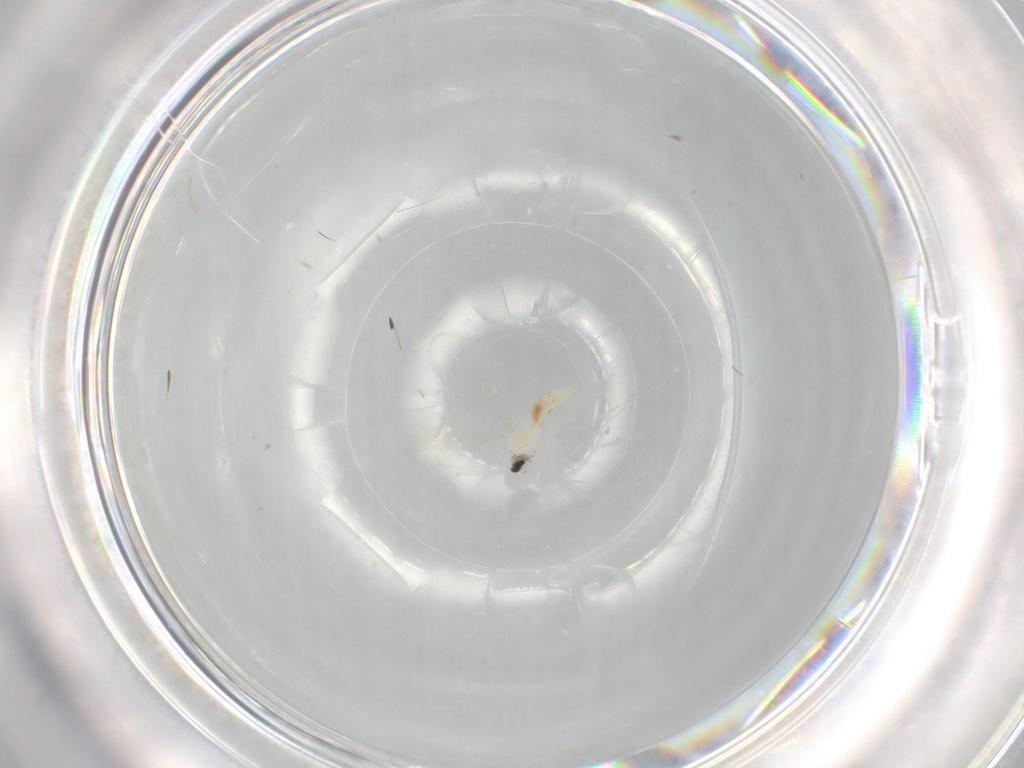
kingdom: Animalia
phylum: Arthropoda
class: Insecta
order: Diptera
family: Cecidomyiidae
